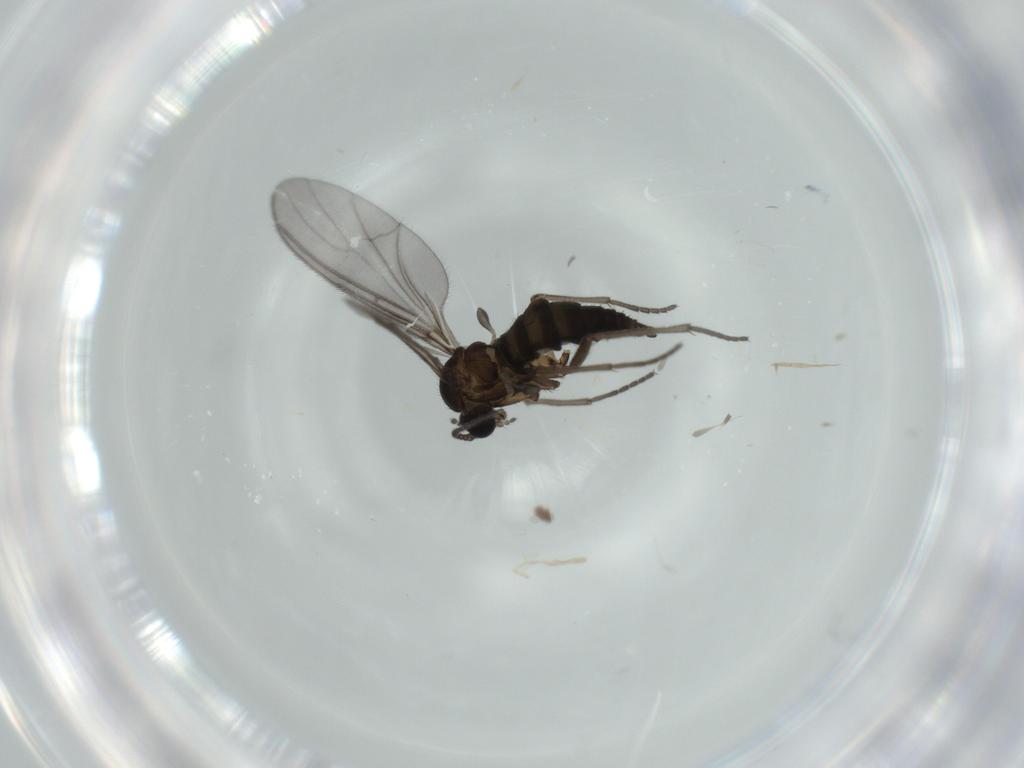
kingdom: Animalia
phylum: Arthropoda
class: Insecta
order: Diptera
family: Sciaridae
